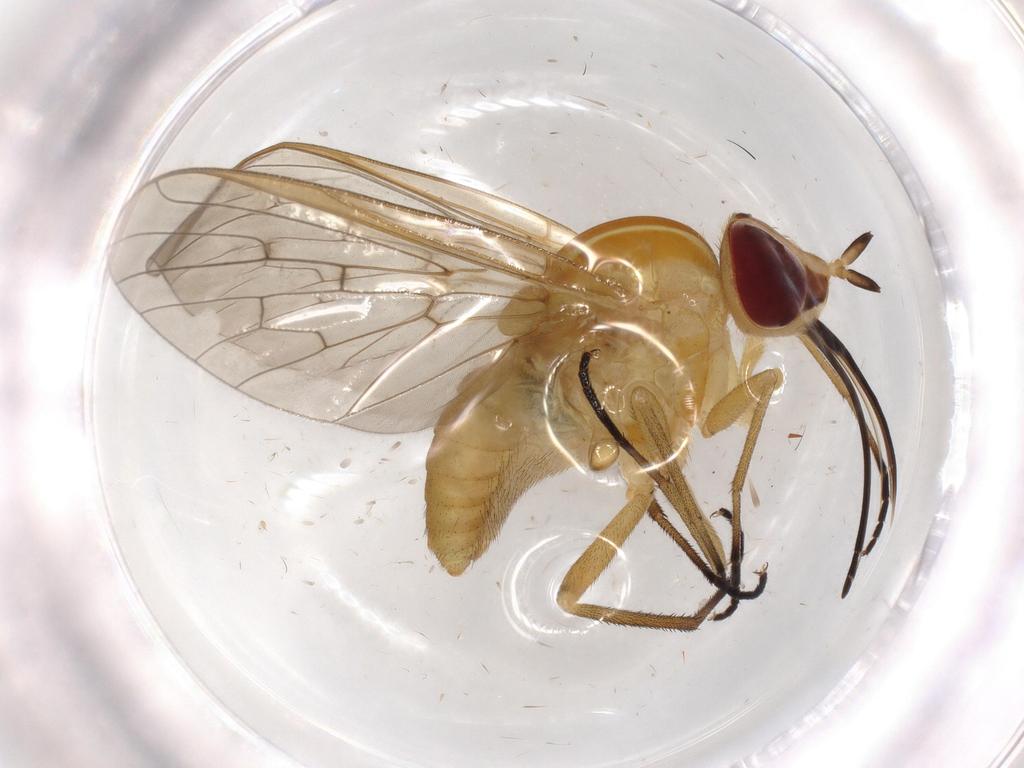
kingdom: Animalia
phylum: Arthropoda
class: Insecta
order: Diptera
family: Bombyliidae
